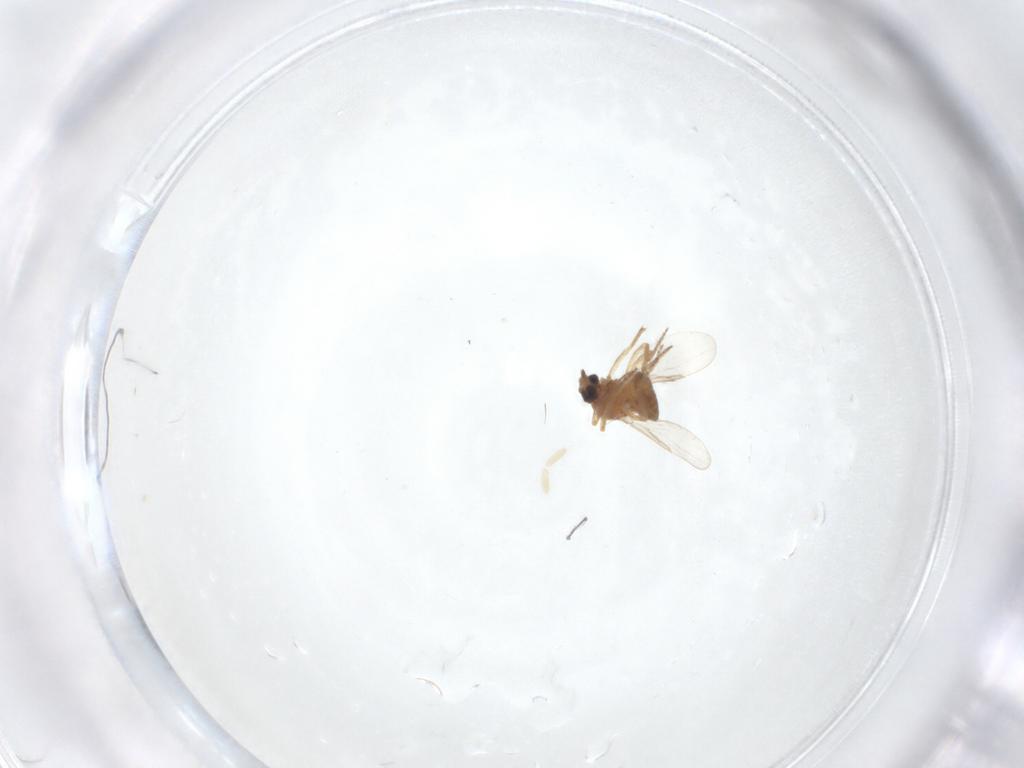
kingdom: Animalia
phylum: Arthropoda
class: Insecta
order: Diptera
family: Ceratopogonidae
